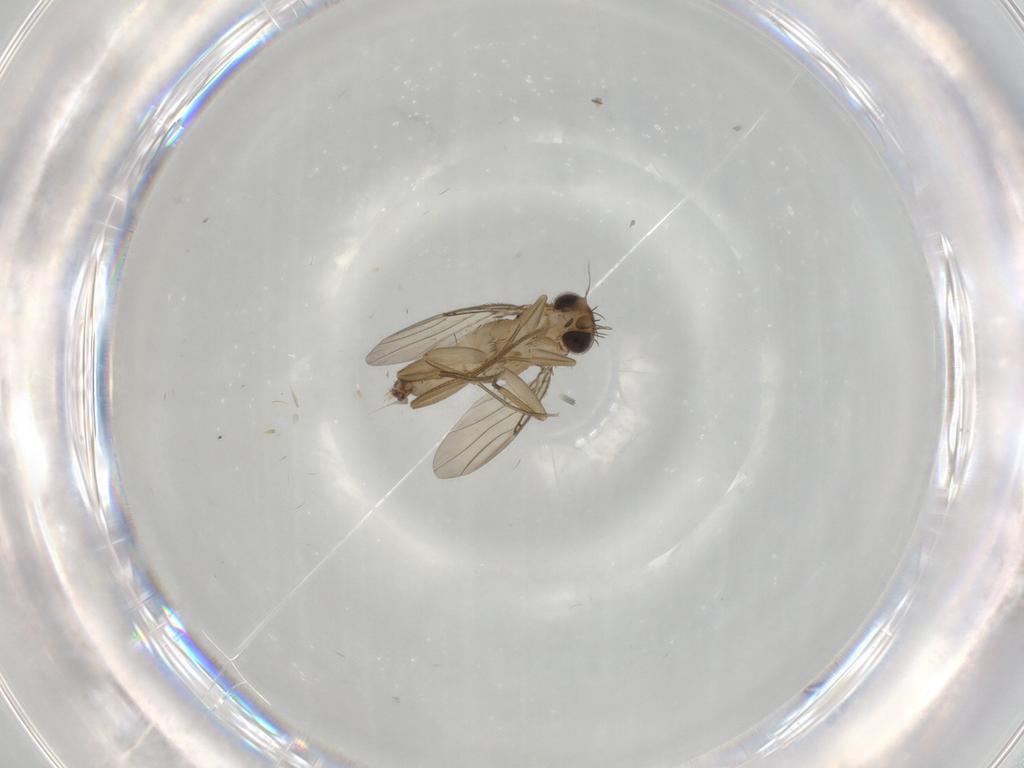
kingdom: Animalia
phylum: Arthropoda
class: Insecta
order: Diptera
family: Phoridae
